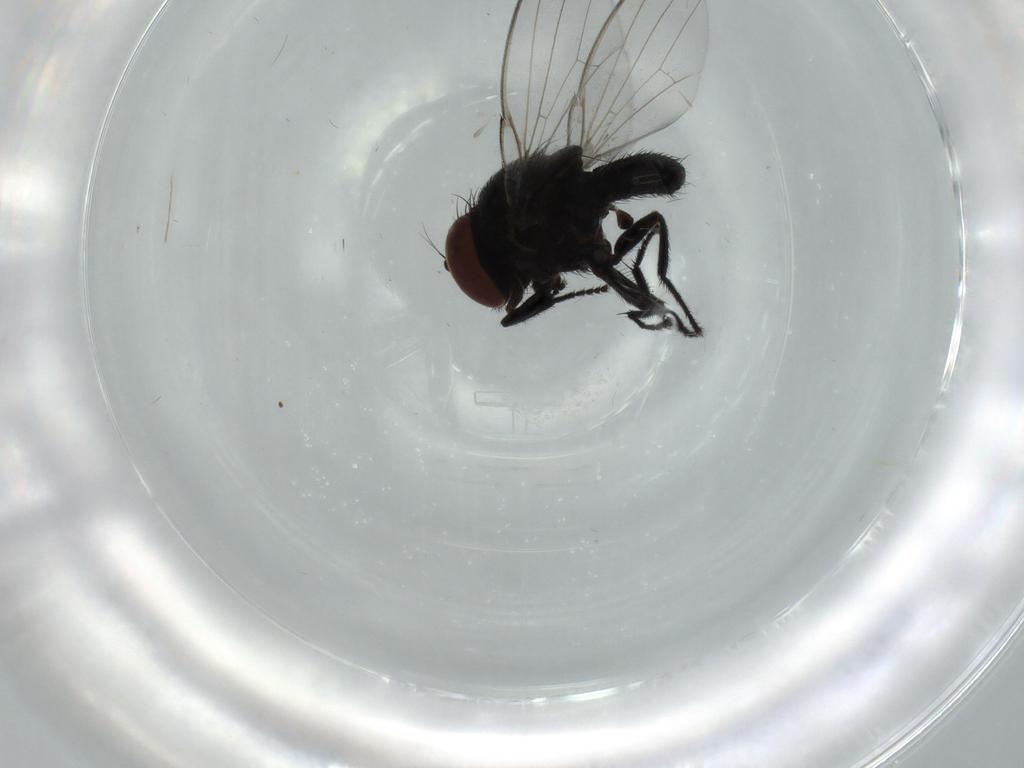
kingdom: Animalia
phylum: Arthropoda
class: Insecta
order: Diptera
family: Milichiidae
